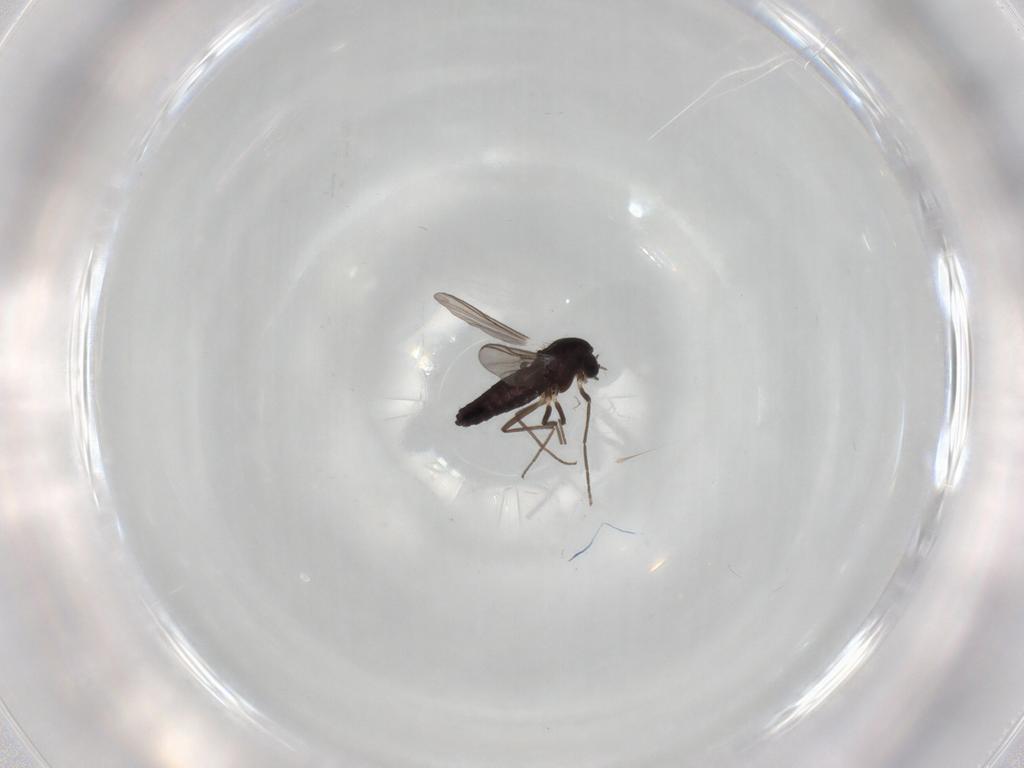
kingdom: Animalia
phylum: Arthropoda
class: Insecta
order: Diptera
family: Chironomidae
